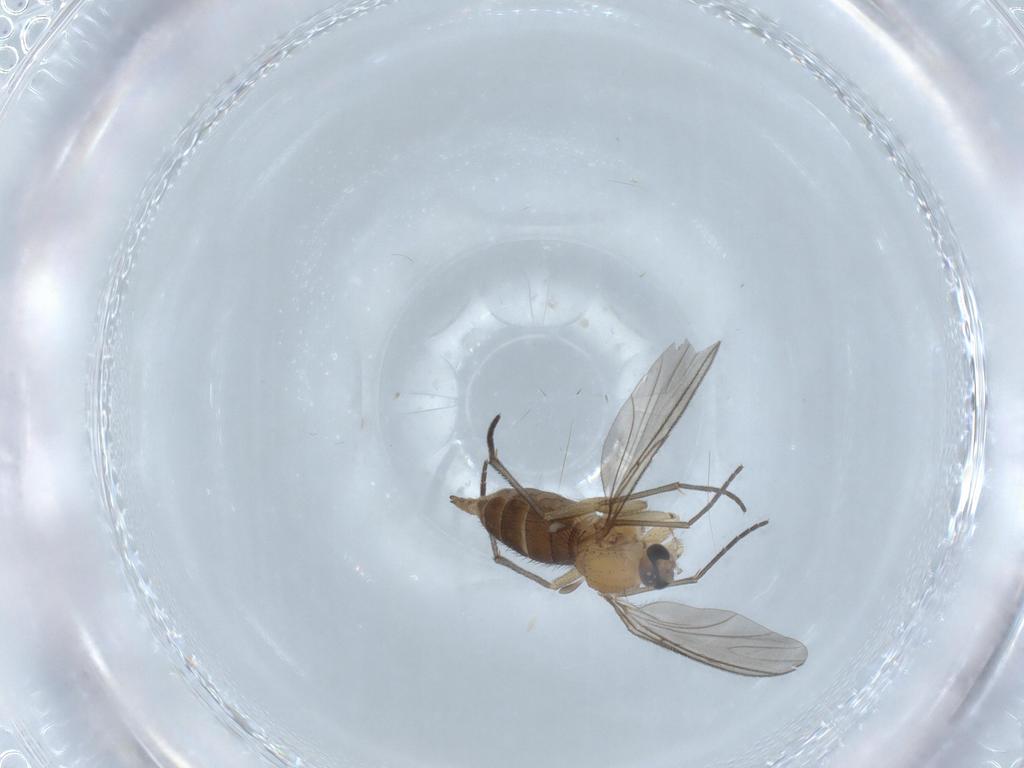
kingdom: Animalia
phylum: Arthropoda
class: Insecta
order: Diptera
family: Sciaridae
